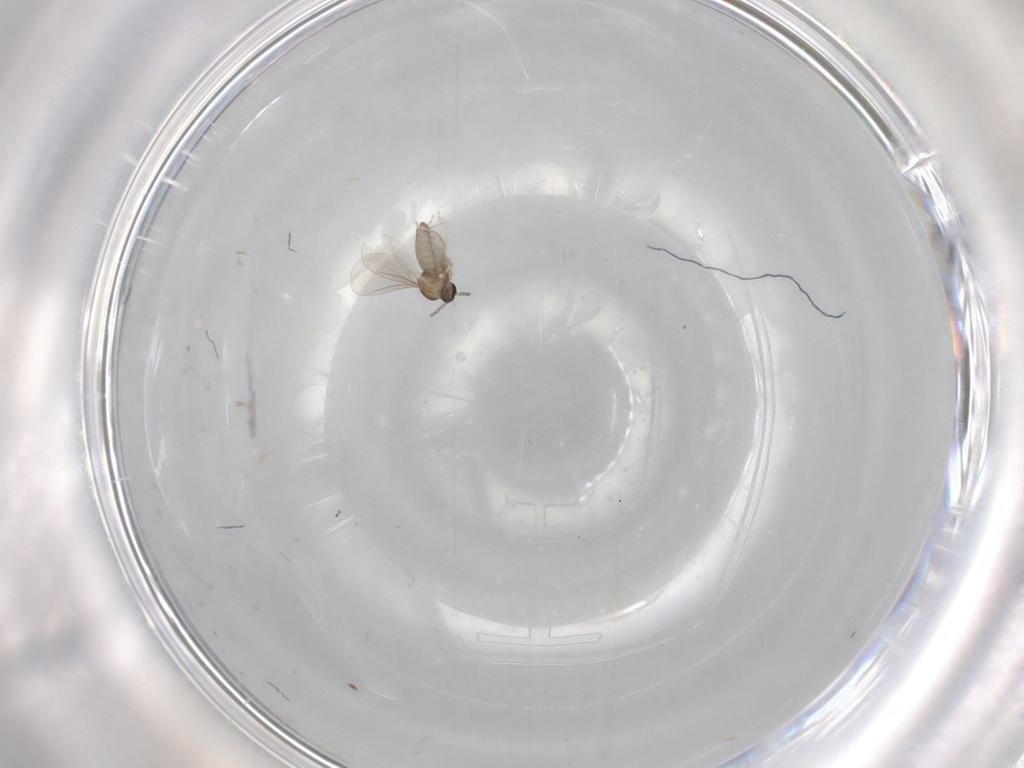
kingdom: Animalia
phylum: Arthropoda
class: Insecta
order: Diptera
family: Cecidomyiidae
